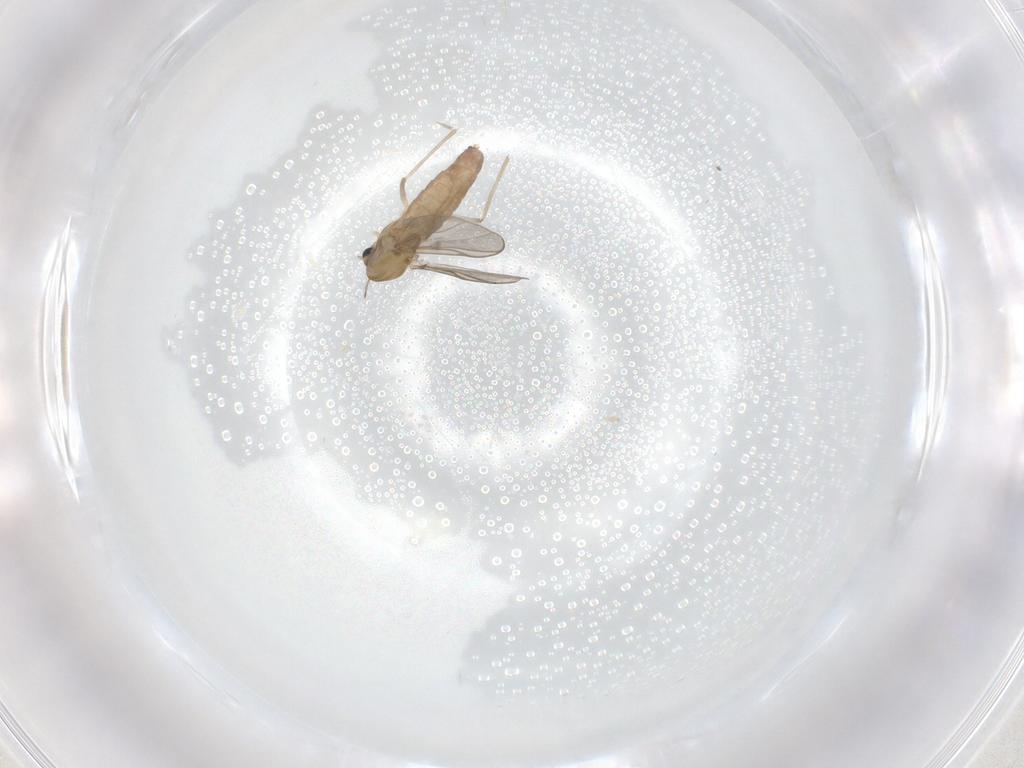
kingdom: Animalia
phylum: Arthropoda
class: Insecta
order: Diptera
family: Chironomidae
